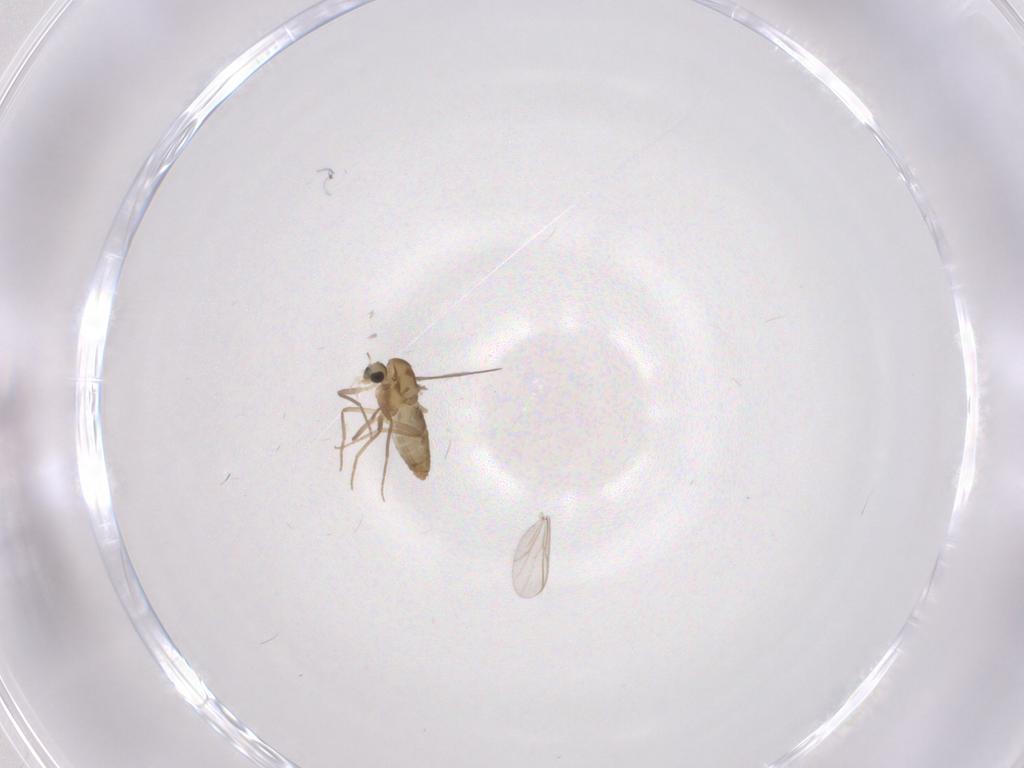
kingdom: Animalia
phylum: Arthropoda
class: Insecta
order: Diptera
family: Chironomidae
